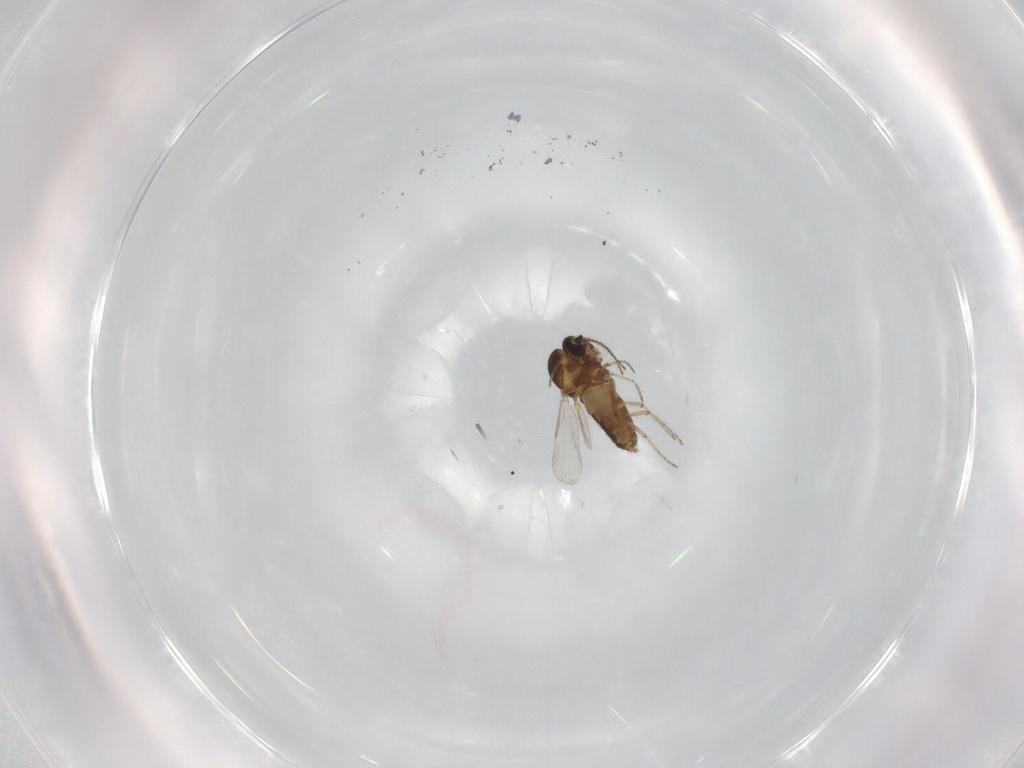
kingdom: Animalia
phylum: Arthropoda
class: Insecta
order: Diptera
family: Ceratopogonidae
